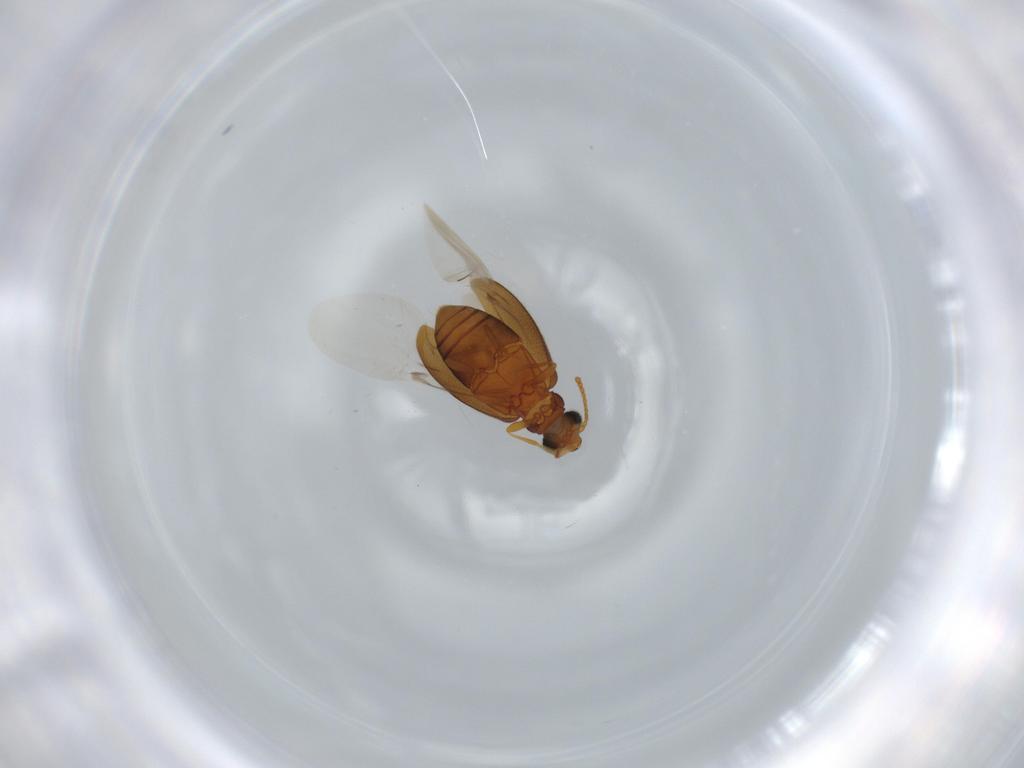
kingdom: Animalia
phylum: Arthropoda
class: Insecta
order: Coleoptera
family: Aderidae
